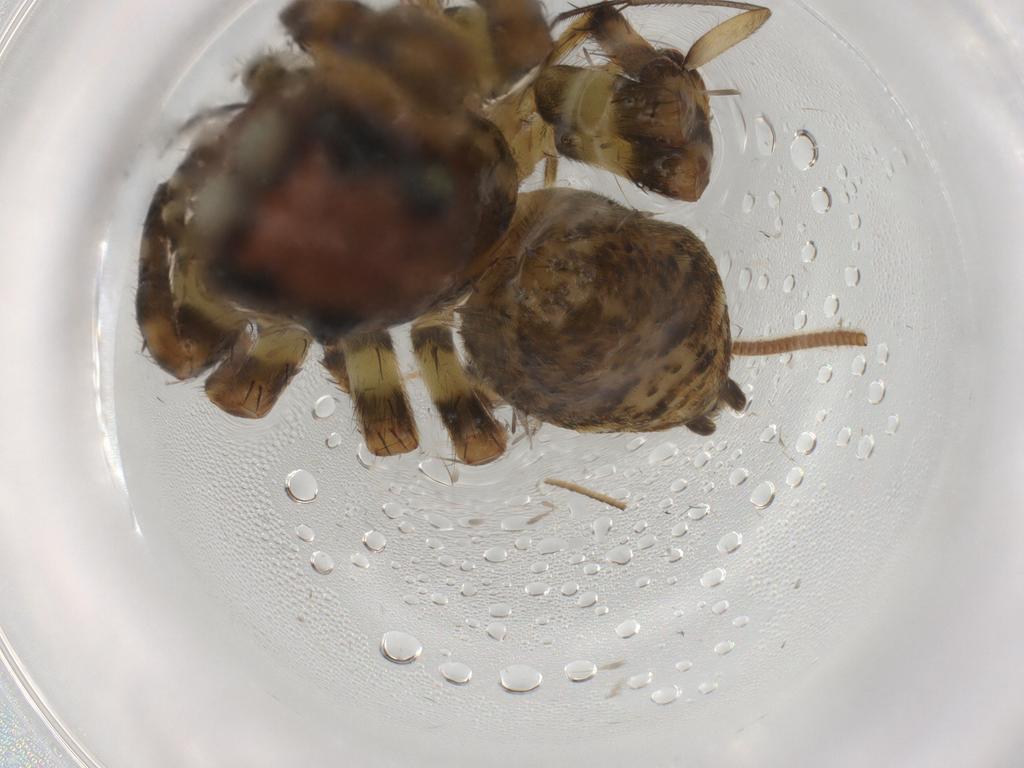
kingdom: Animalia
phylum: Arthropoda
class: Arachnida
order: Araneae
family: Salticidae
